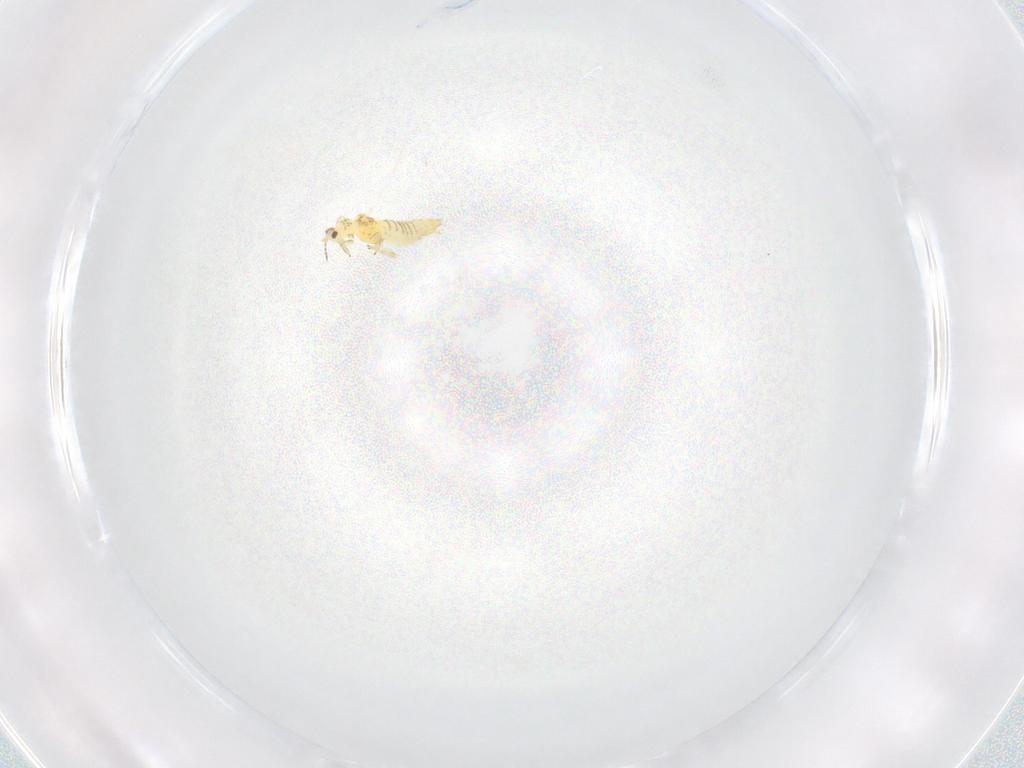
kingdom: Animalia
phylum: Arthropoda
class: Insecta
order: Thysanoptera
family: Thripidae
